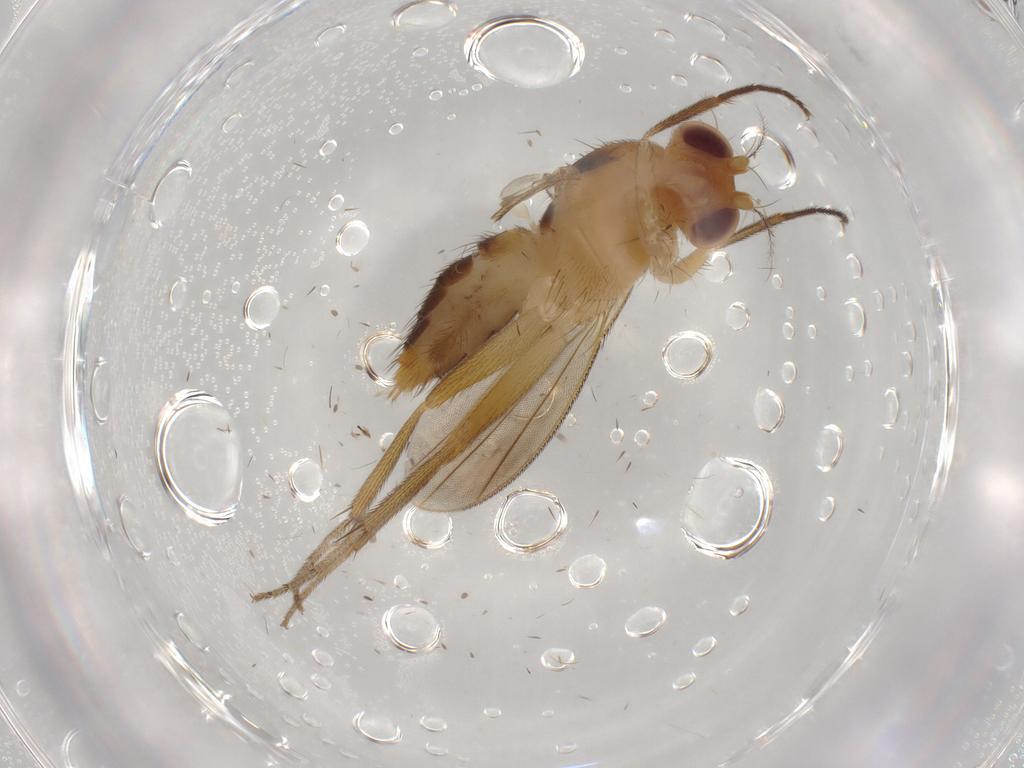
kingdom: Animalia
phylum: Arthropoda
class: Insecta
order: Diptera
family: Clusiidae
